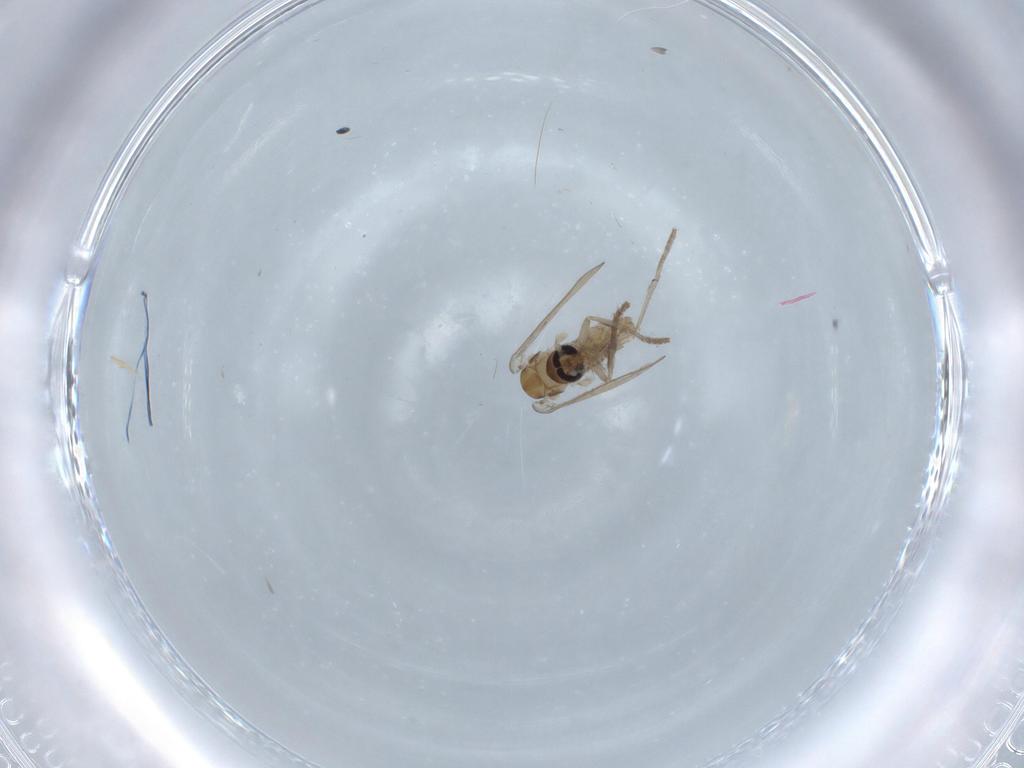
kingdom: Animalia
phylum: Arthropoda
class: Insecta
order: Diptera
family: Psychodidae
